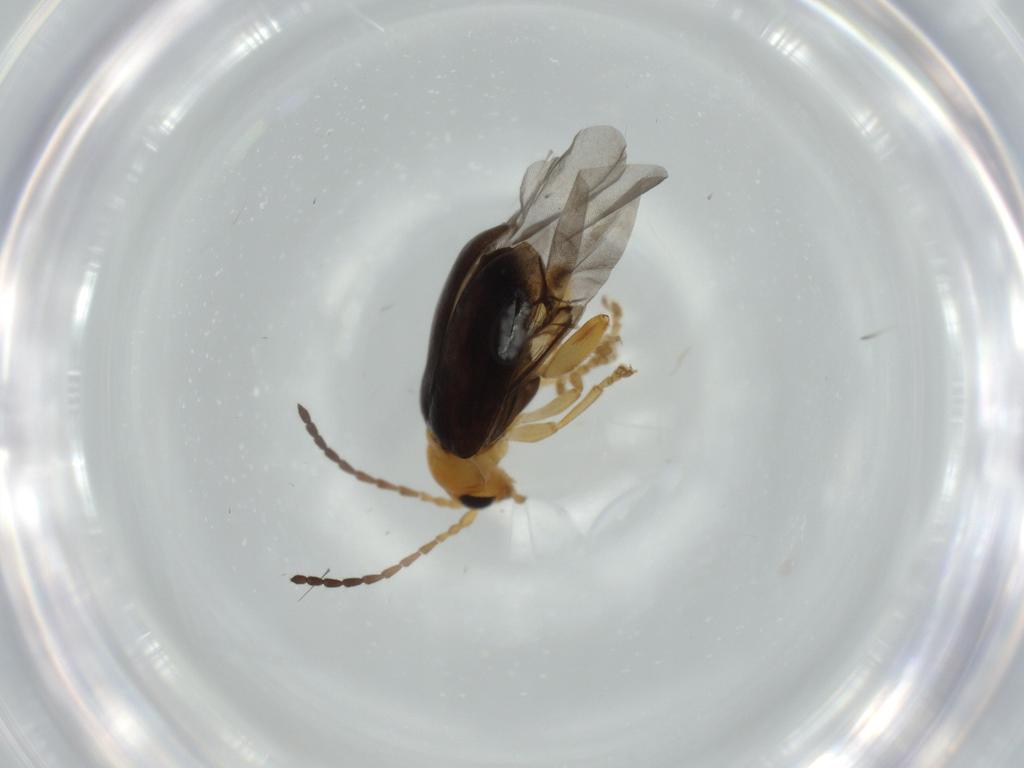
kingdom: Animalia
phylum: Arthropoda
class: Insecta
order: Coleoptera
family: Chrysomelidae
